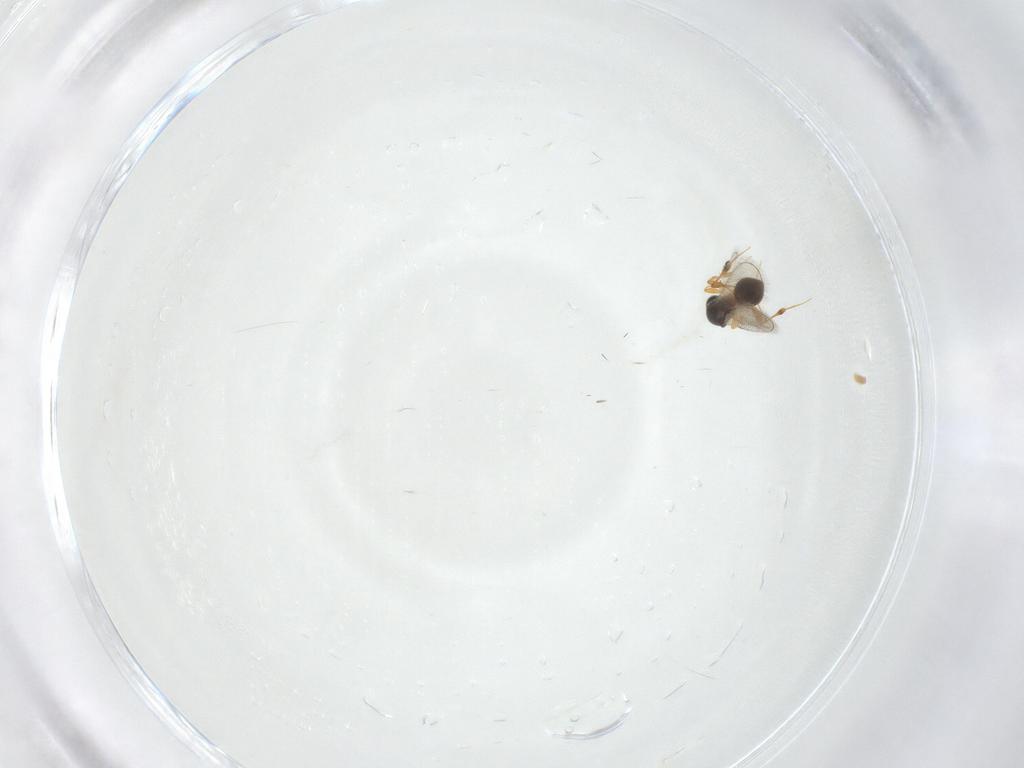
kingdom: Animalia
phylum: Arthropoda
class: Insecta
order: Hymenoptera
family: Platygastridae
